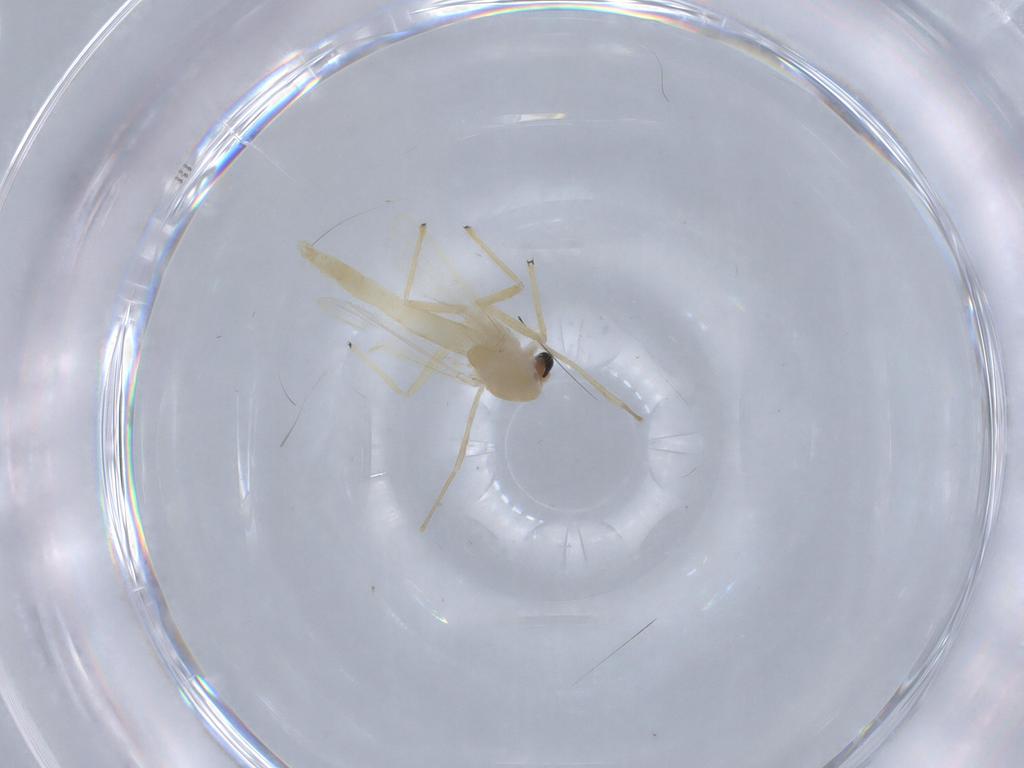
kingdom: Animalia
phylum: Arthropoda
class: Insecta
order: Diptera
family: Chironomidae
